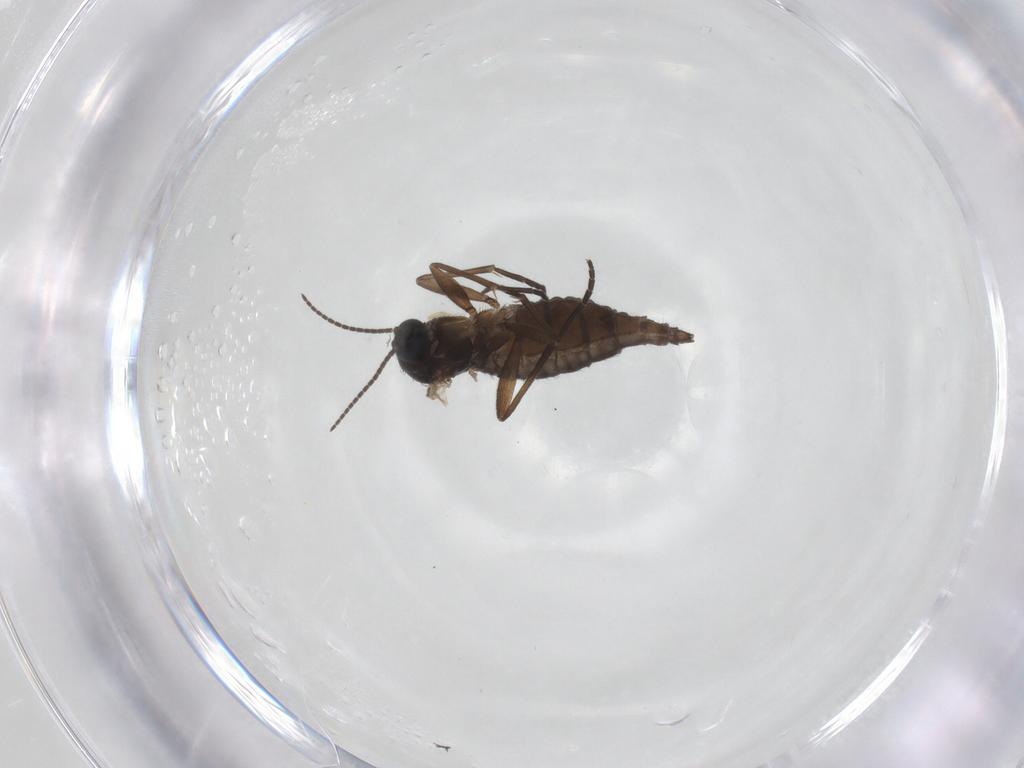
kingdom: Animalia
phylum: Arthropoda
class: Insecta
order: Diptera
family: Sciaridae
